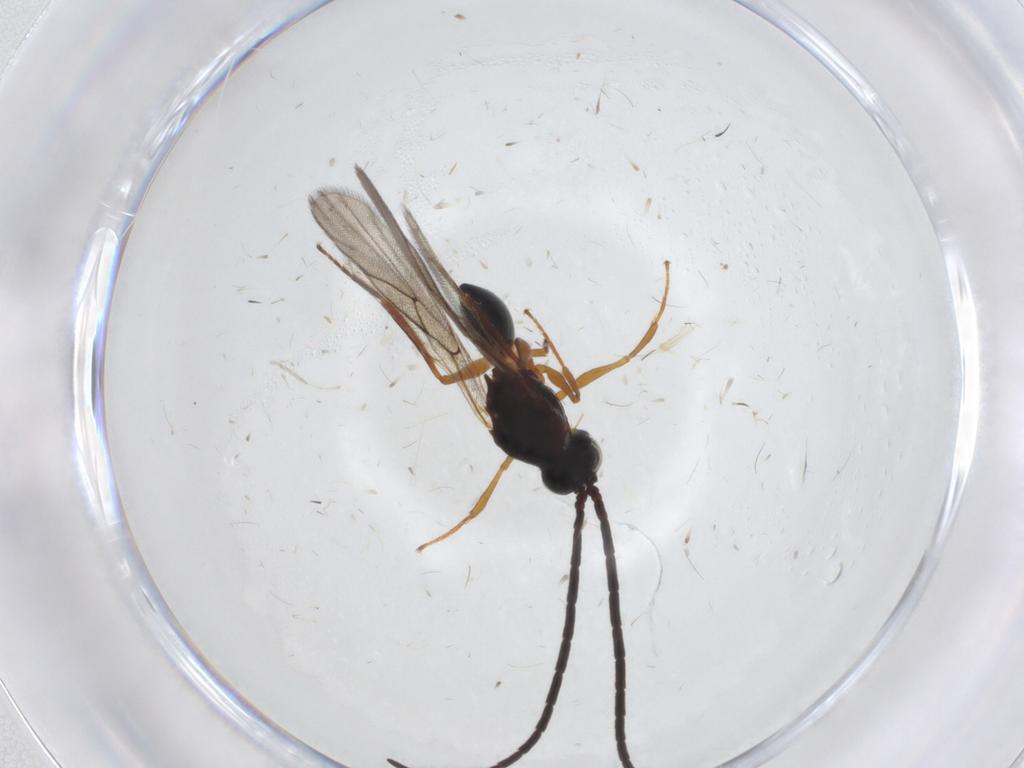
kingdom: Animalia
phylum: Arthropoda
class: Insecta
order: Hymenoptera
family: Figitidae
